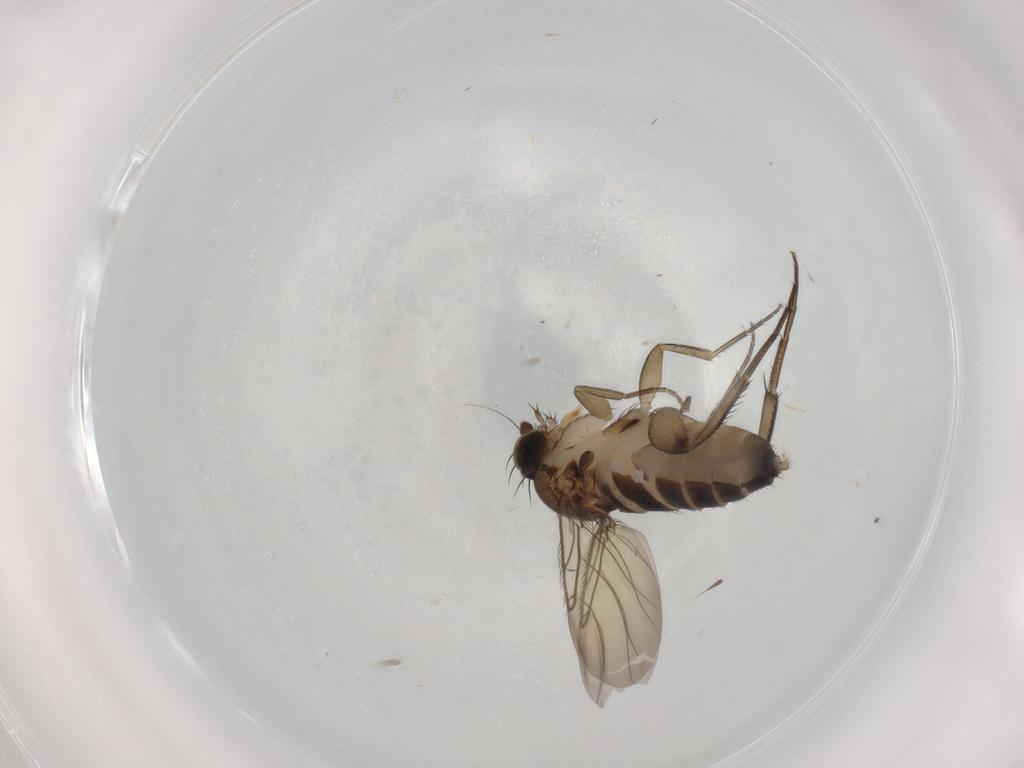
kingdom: Animalia
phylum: Arthropoda
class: Insecta
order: Diptera
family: Phoridae
